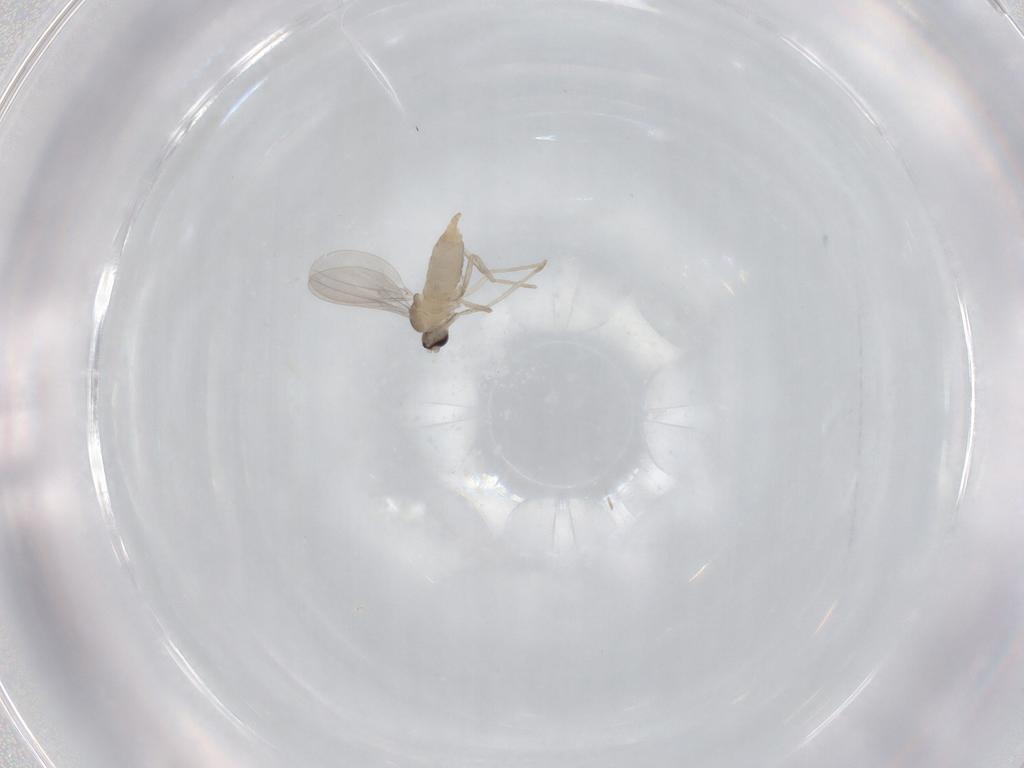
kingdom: Animalia
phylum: Arthropoda
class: Insecta
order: Diptera
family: Cecidomyiidae
